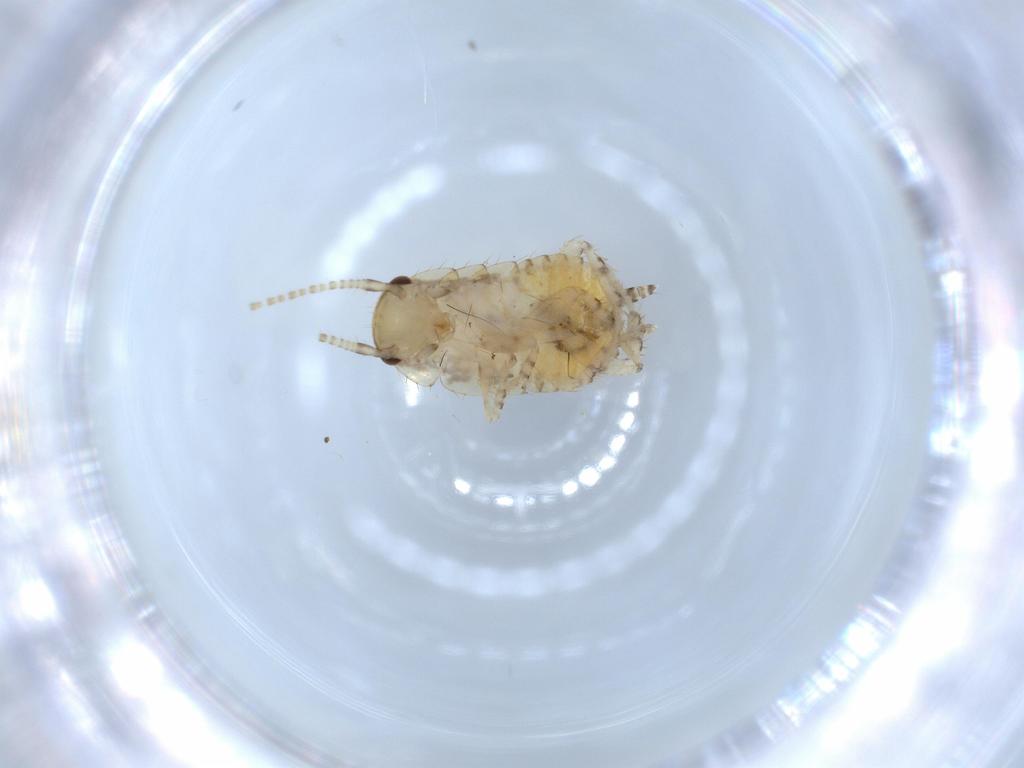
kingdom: Animalia
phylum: Arthropoda
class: Insecta
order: Blattodea
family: Ectobiidae
